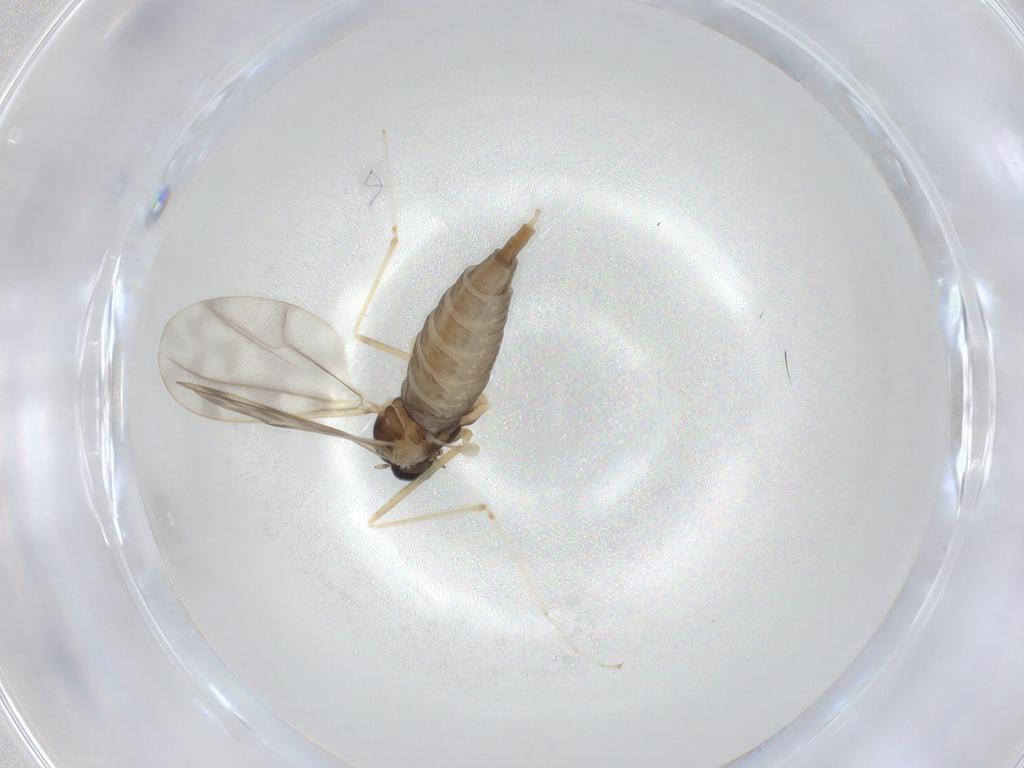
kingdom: Animalia
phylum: Arthropoda
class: Insecta
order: Diptera
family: Cecidomyiidae
